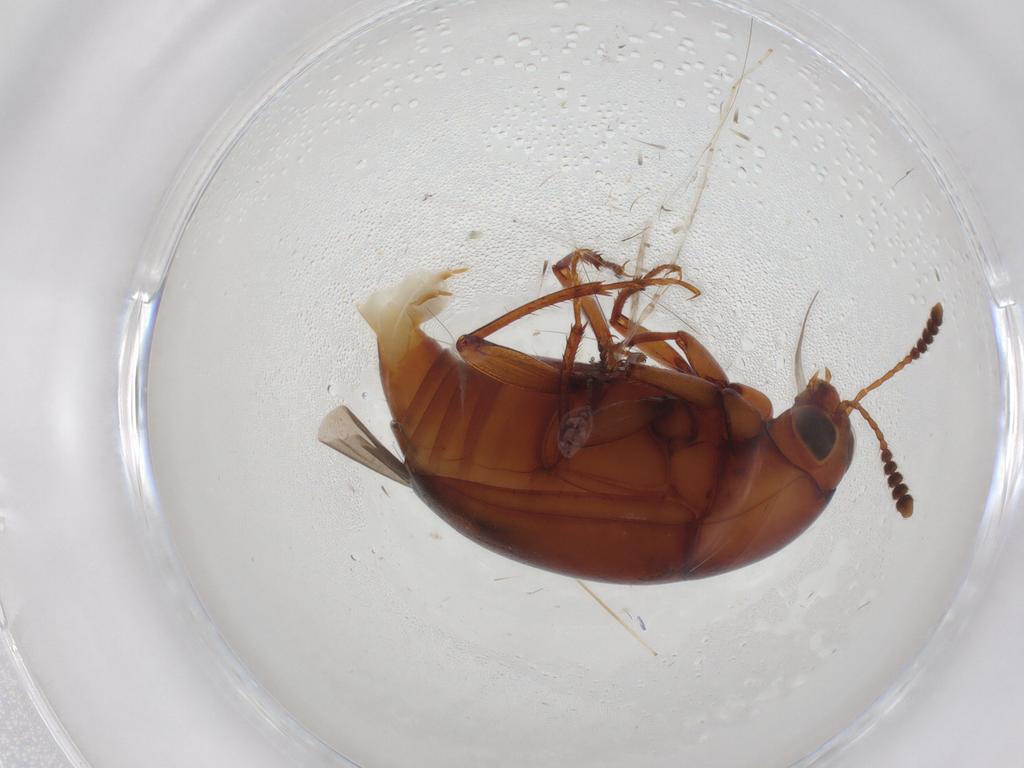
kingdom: Animalia
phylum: Arthropoda
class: Insecta
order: Coleoptera
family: Staphylinidae
